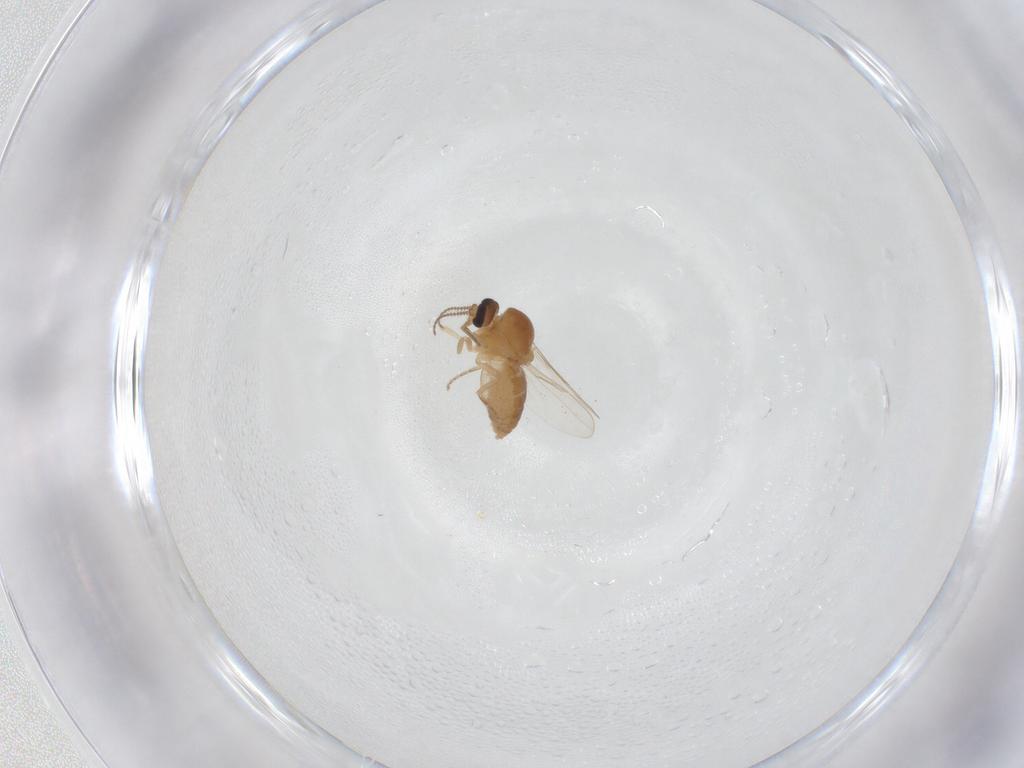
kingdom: Animalia
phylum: Arthropoda
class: Insecta
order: Diptera
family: Ceratopogonidae
